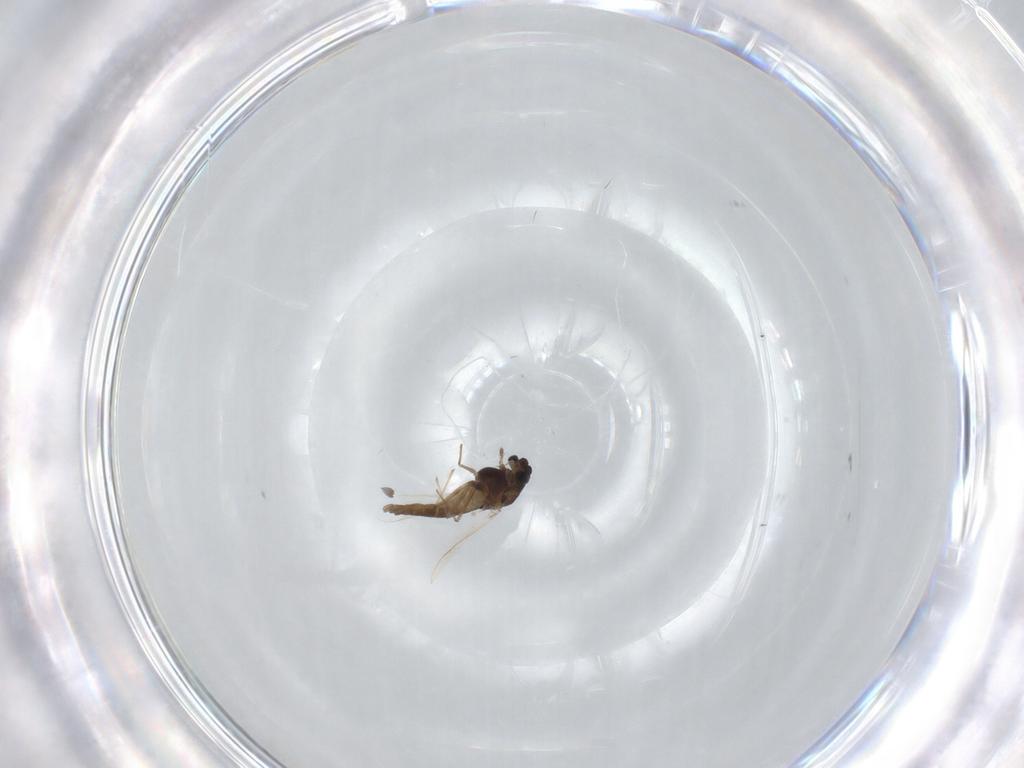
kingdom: Animalia
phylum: Arthropoda
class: Insecta
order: Diptera
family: Chironomidae
